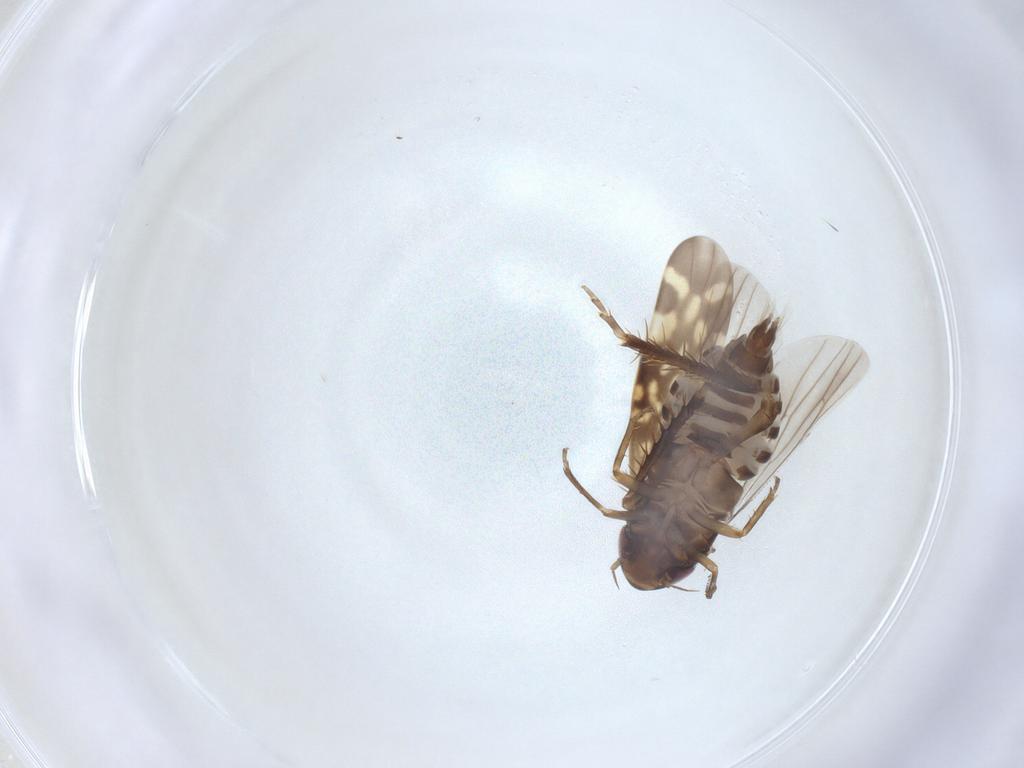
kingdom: Animalia
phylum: Arthropoda
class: Insecta
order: Hemiptera
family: Cicadellidae
